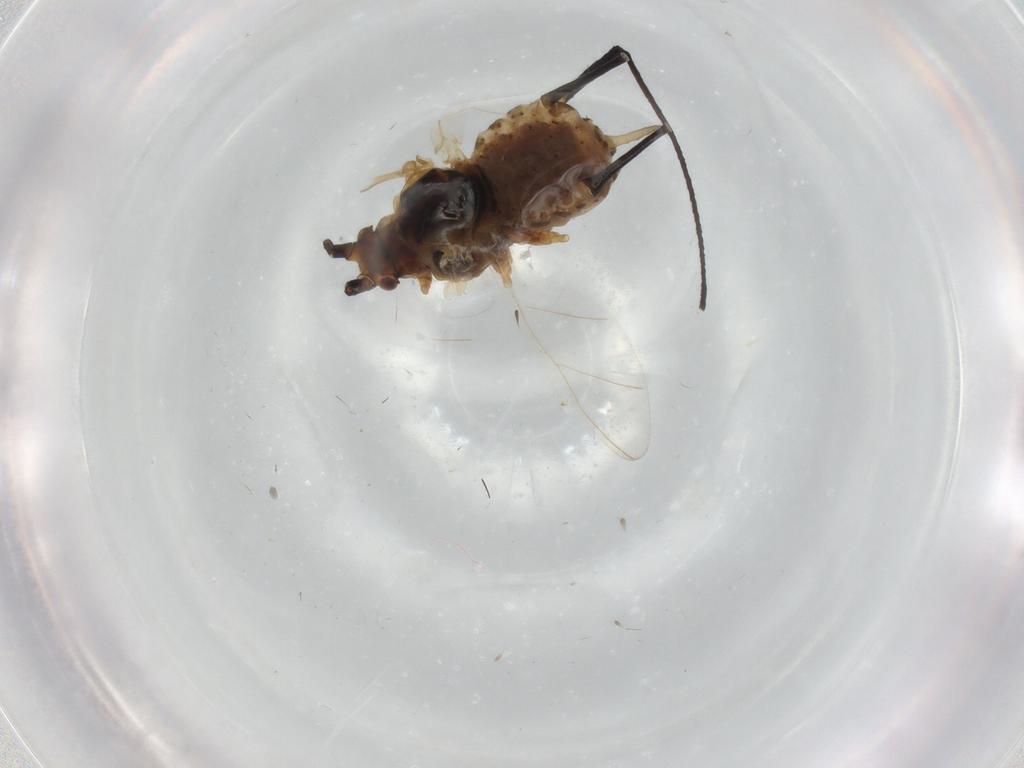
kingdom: Animalia
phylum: Arthropoda
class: Insecta
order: Hemiptera
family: Aphididae
